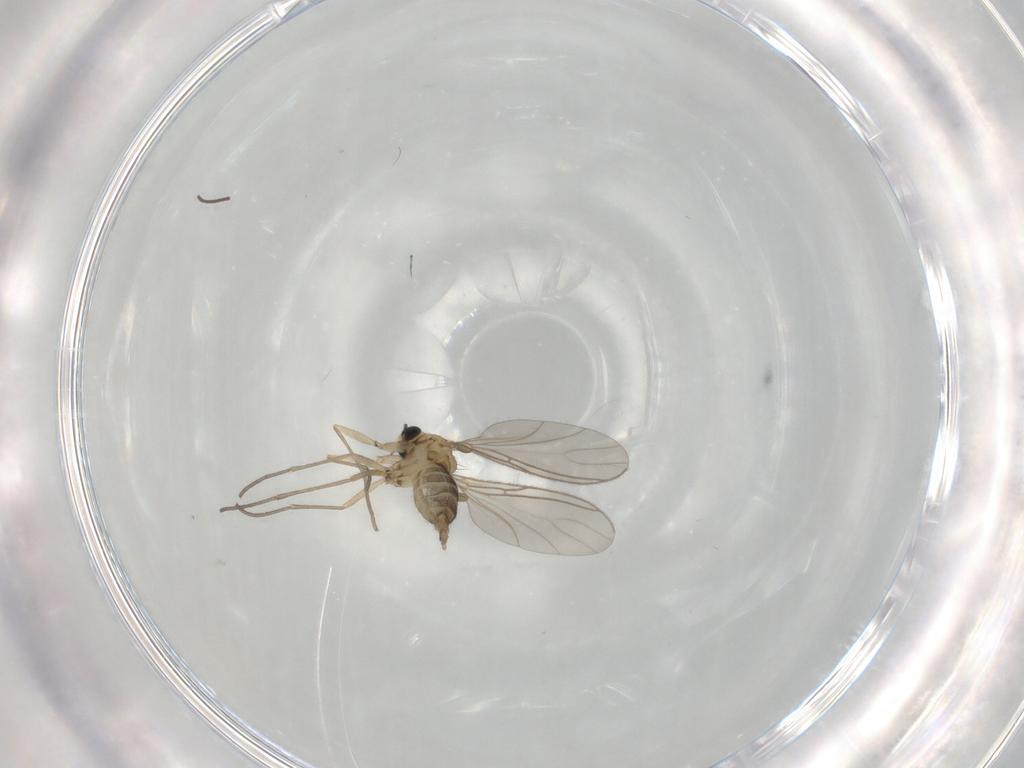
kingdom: Animalia
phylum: Arthropoda
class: Insecta
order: Diptera
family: Sciaridae
